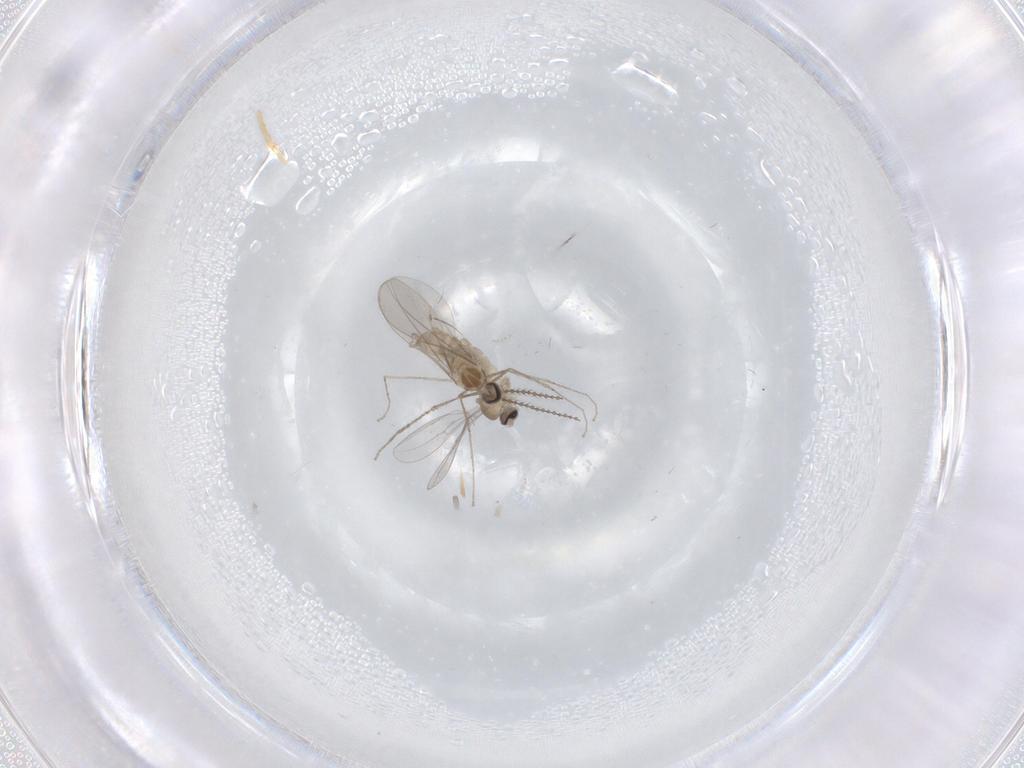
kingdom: Animalia
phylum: Arthropoda
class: Insecta
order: Diptera
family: Cecidomyiidae
